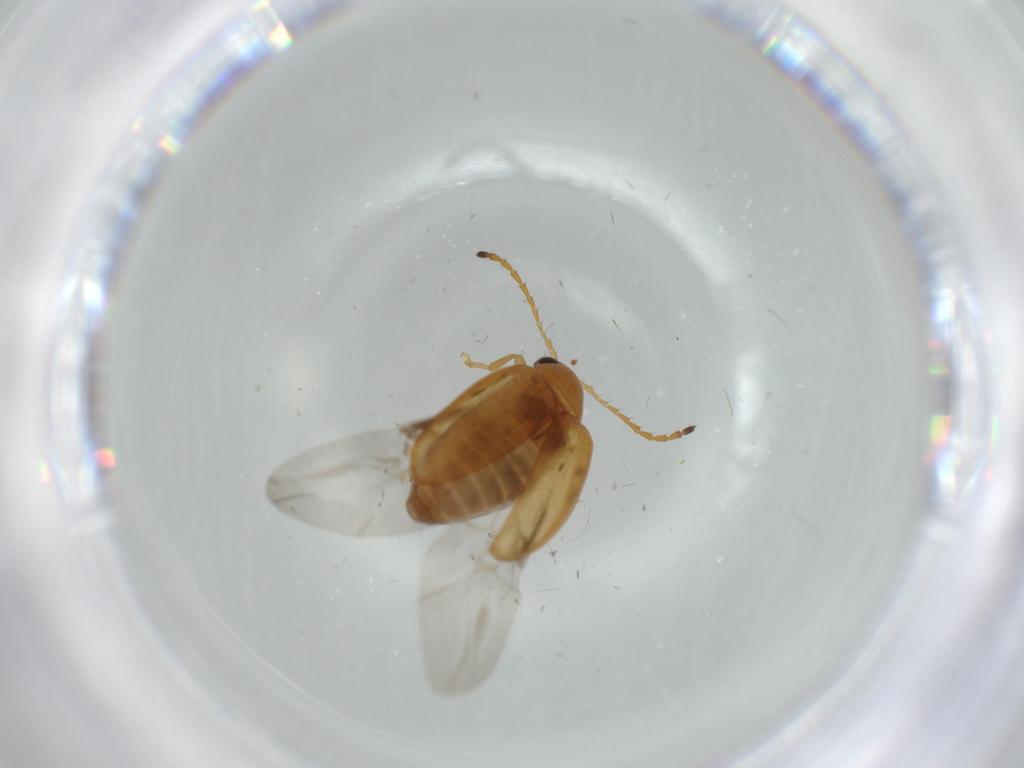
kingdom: Animalia
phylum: Arthropoda
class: Insecta
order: Coleoptera
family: Chrysomelidae
